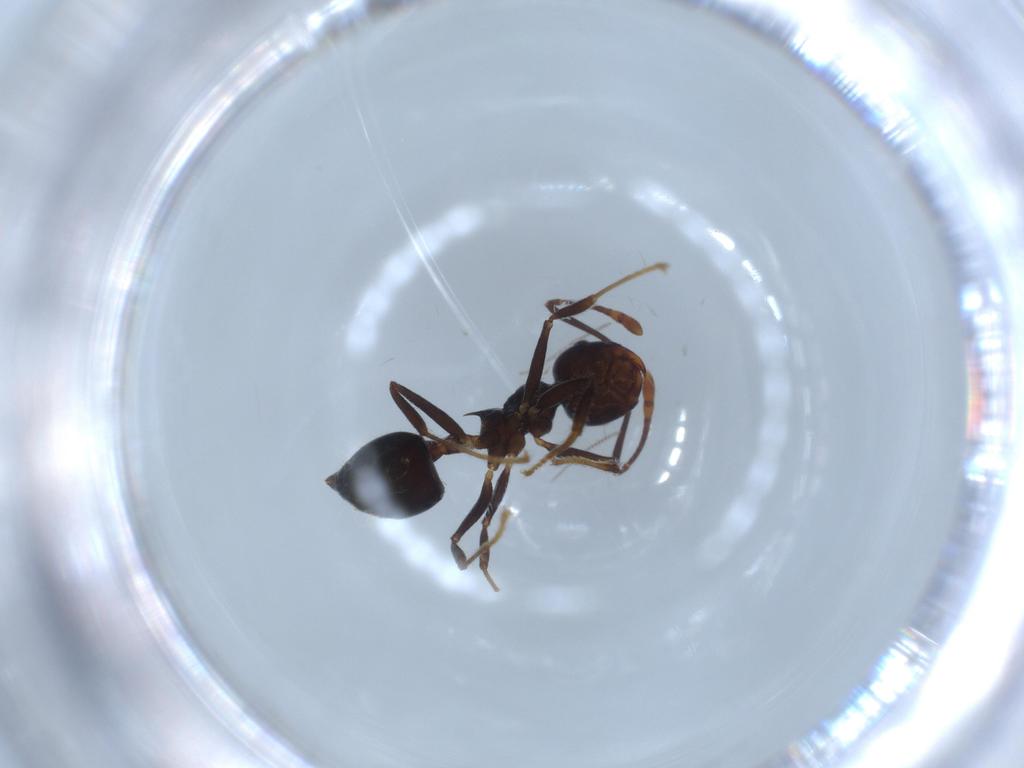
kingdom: Animalia
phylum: Arthropoda
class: Insecta
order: Hymenoptera
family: Formicidae
